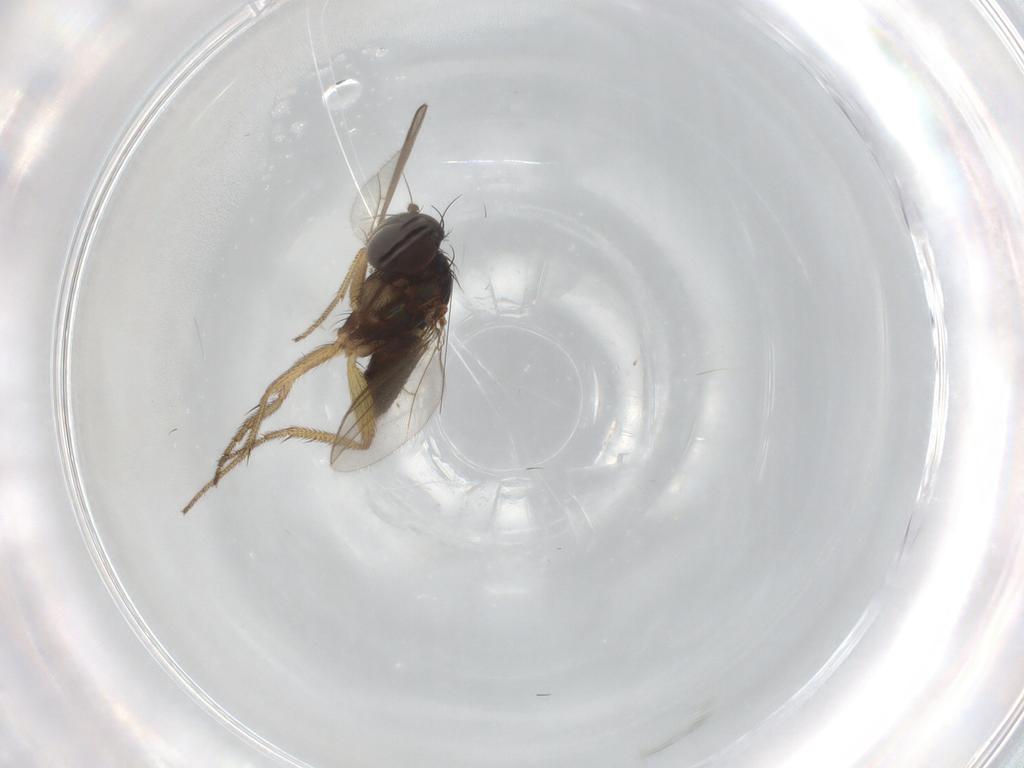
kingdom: Animalia
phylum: Arthropoda
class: Insecta
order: Diptera
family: Dolichopodidae
